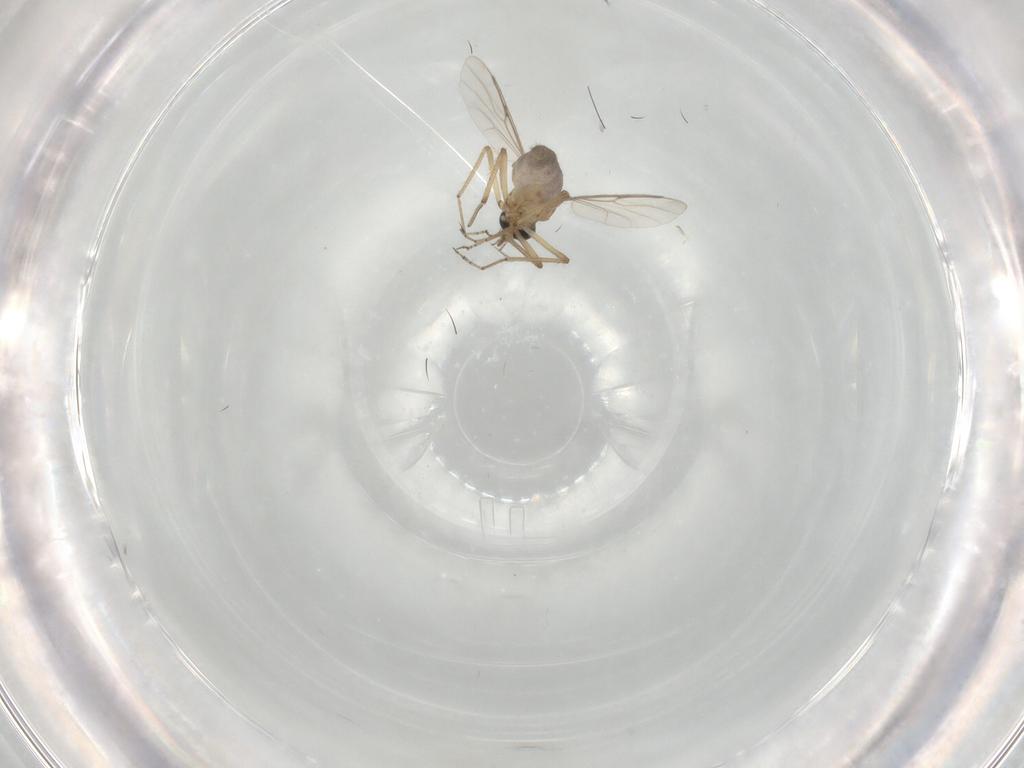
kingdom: Animalia
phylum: Arthropoda
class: Insecta
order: Diptera
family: Ceratopogonidae
